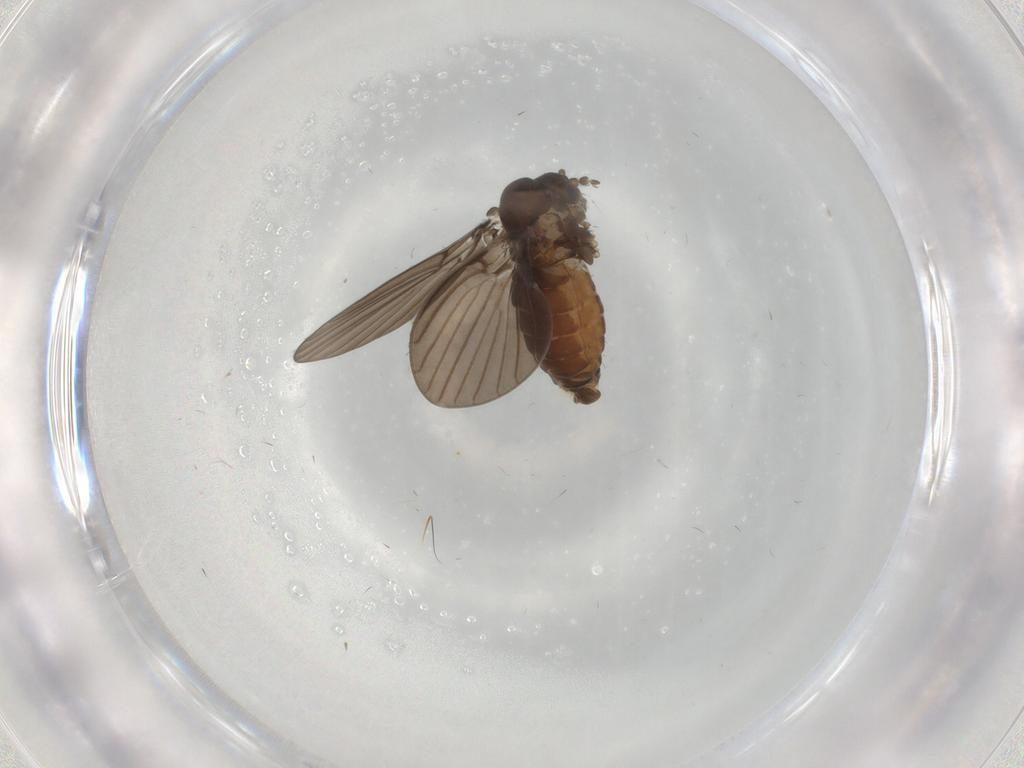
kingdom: Animalia
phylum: Arthropoda
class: Insecta
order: Diptera
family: Psychodidae
